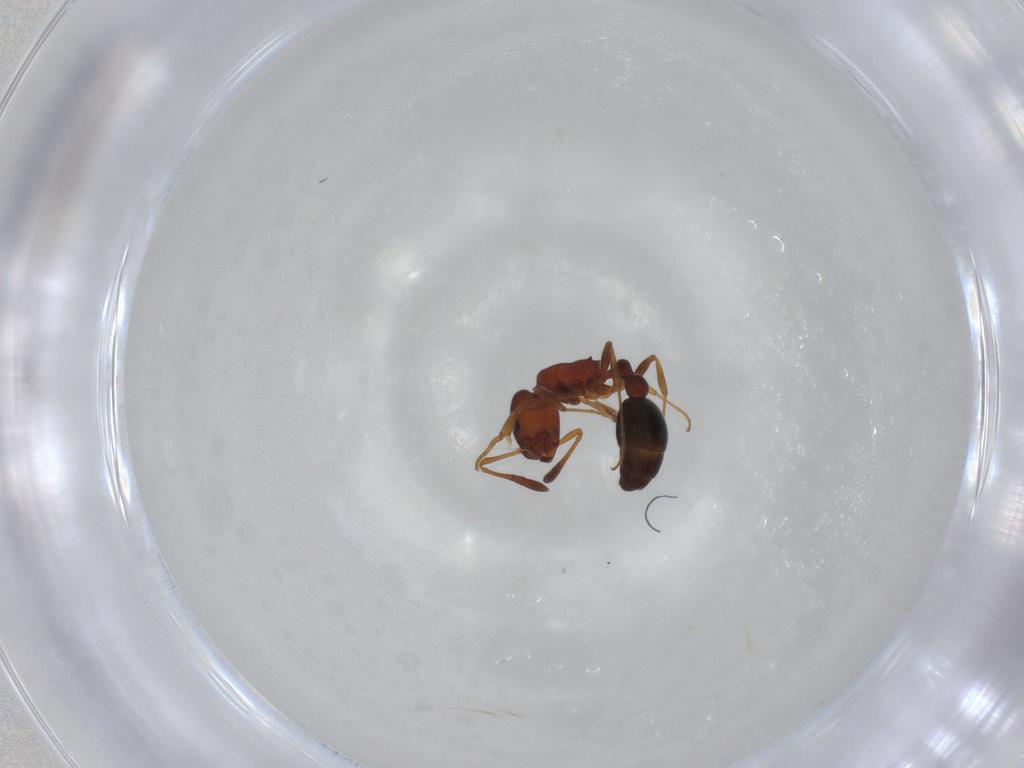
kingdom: Animalia
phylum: Arthropoda
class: Insecta
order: Hymenoptera
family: Formicidae
